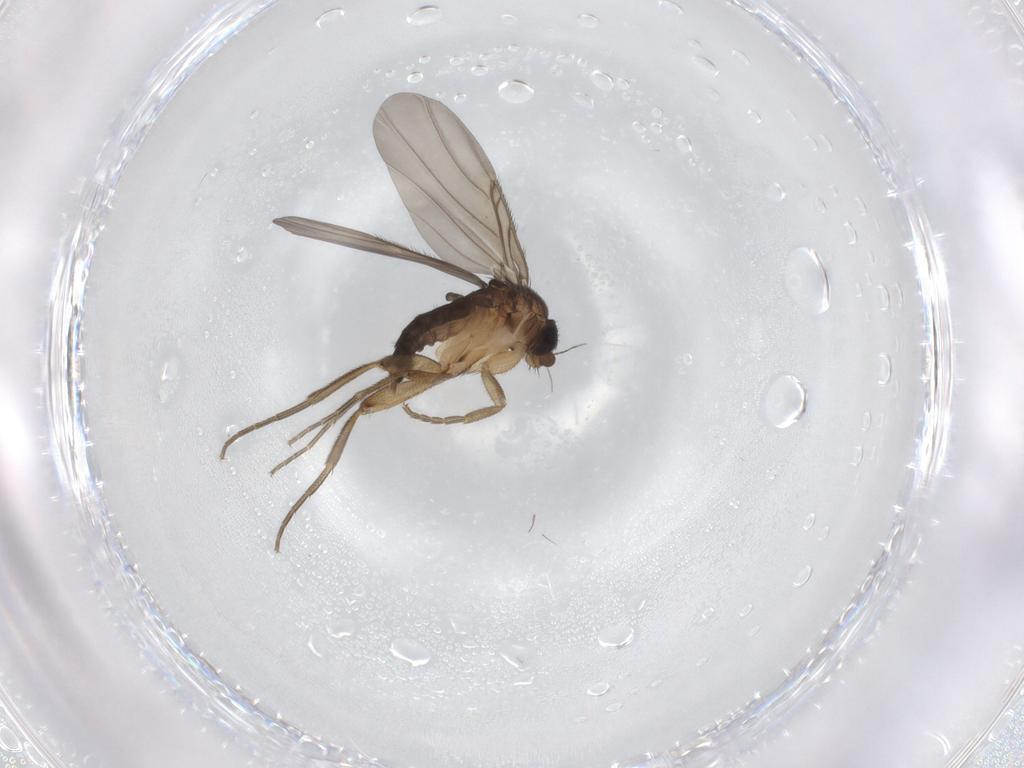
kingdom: Animalia
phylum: Arthropoda
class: Insecta
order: Diptera
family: Phoridae
